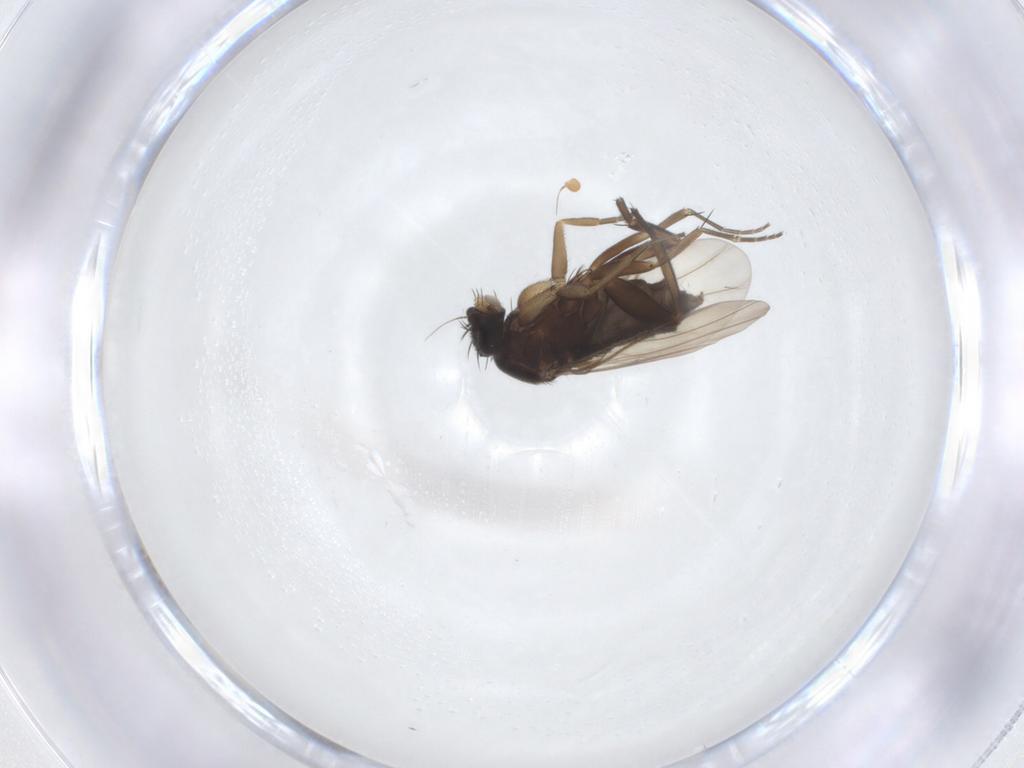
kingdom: Animalia
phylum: Arthropoda
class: Insecta
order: Diptera
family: Phoridae
